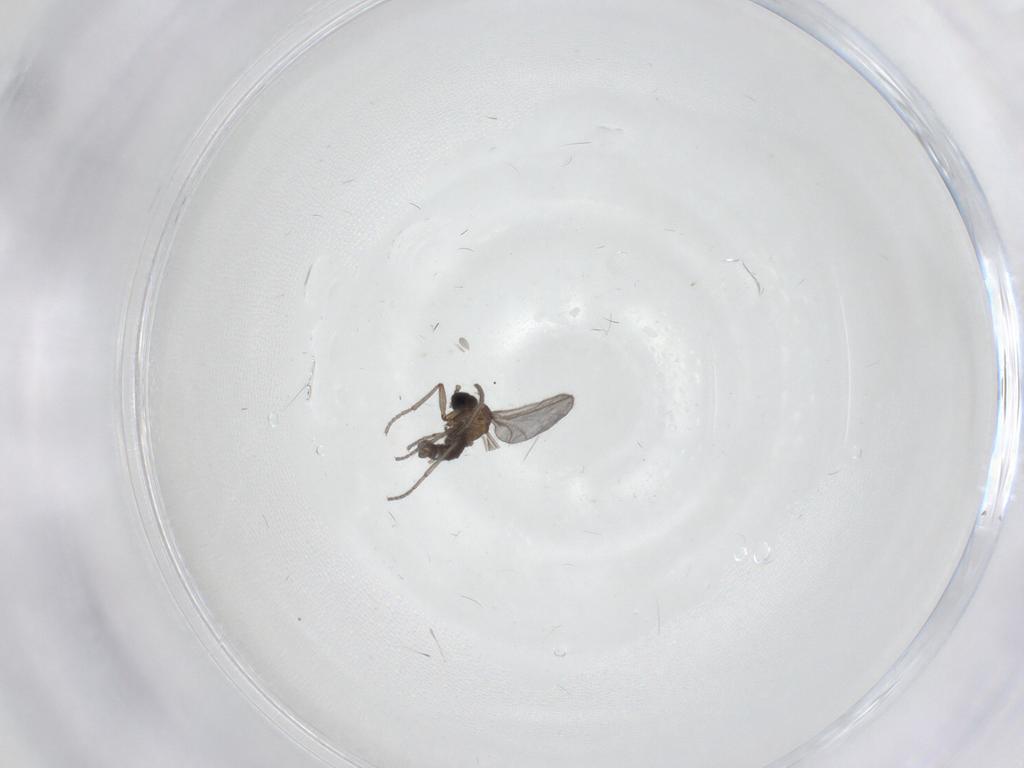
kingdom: Animalia
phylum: Arthropoda
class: Insecta
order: Diptera
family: Sciaridae
